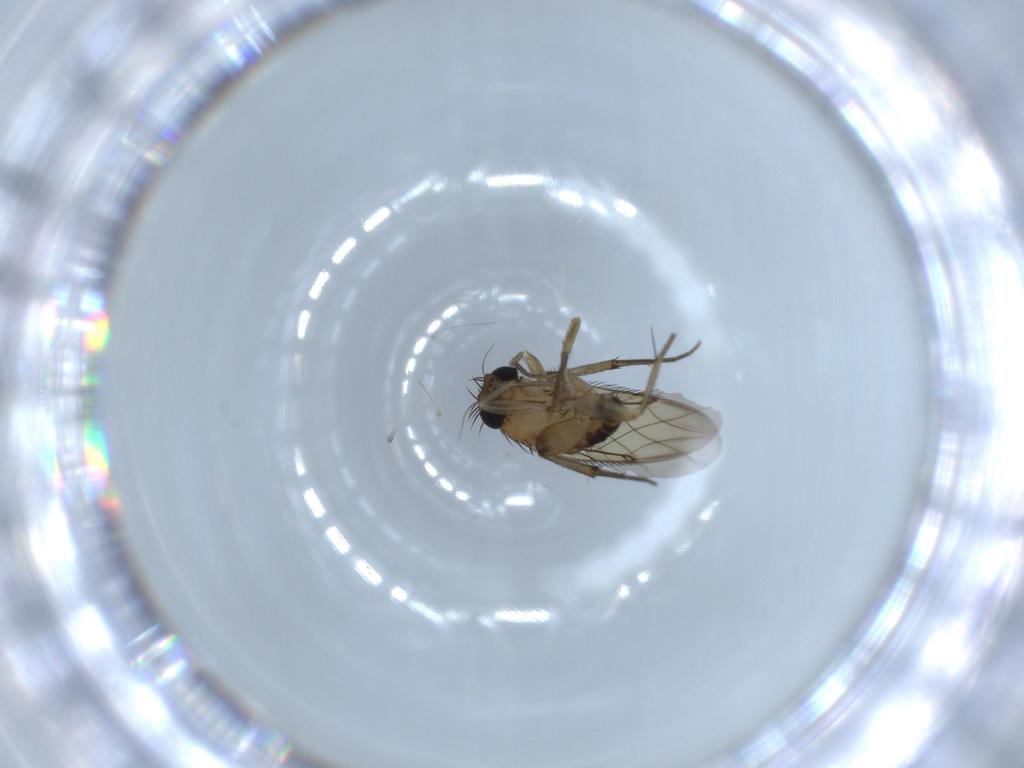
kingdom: Animalia
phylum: Arthropoda
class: Insecta
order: Diptera
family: Phoridae
